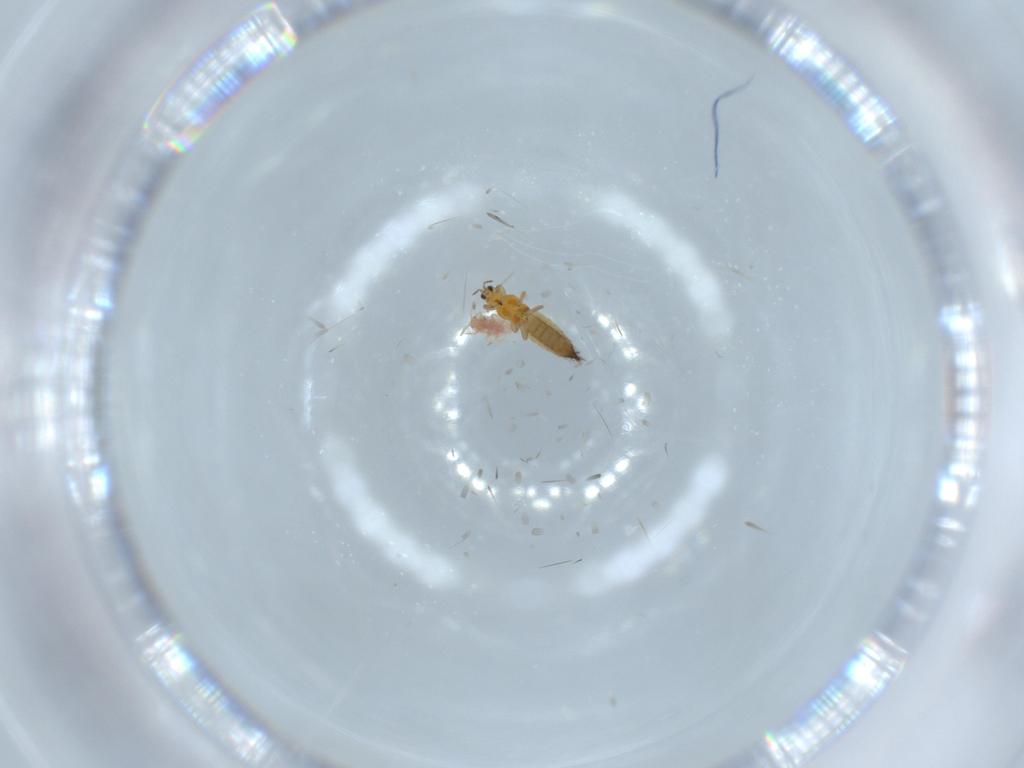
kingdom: Animalia
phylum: Arthropoda
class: Insecta
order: Thysanoptera
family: Thripidae
